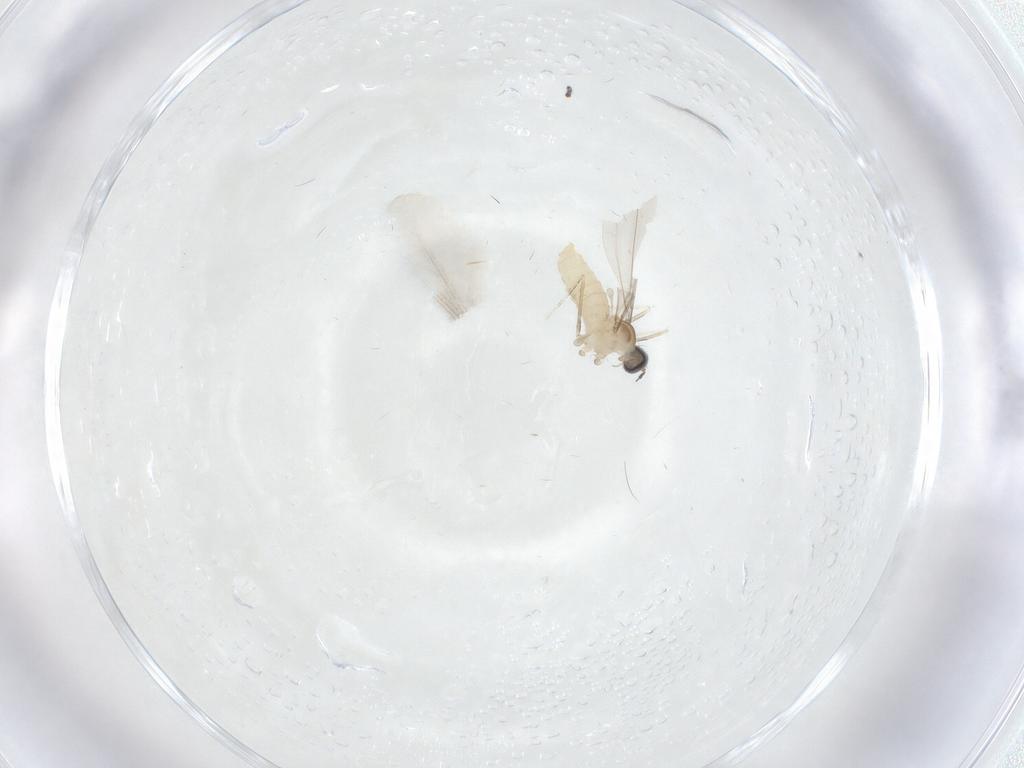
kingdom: Animalia
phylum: Arthropoda
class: Insecta
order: Diptera
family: Cecidomyiidae
